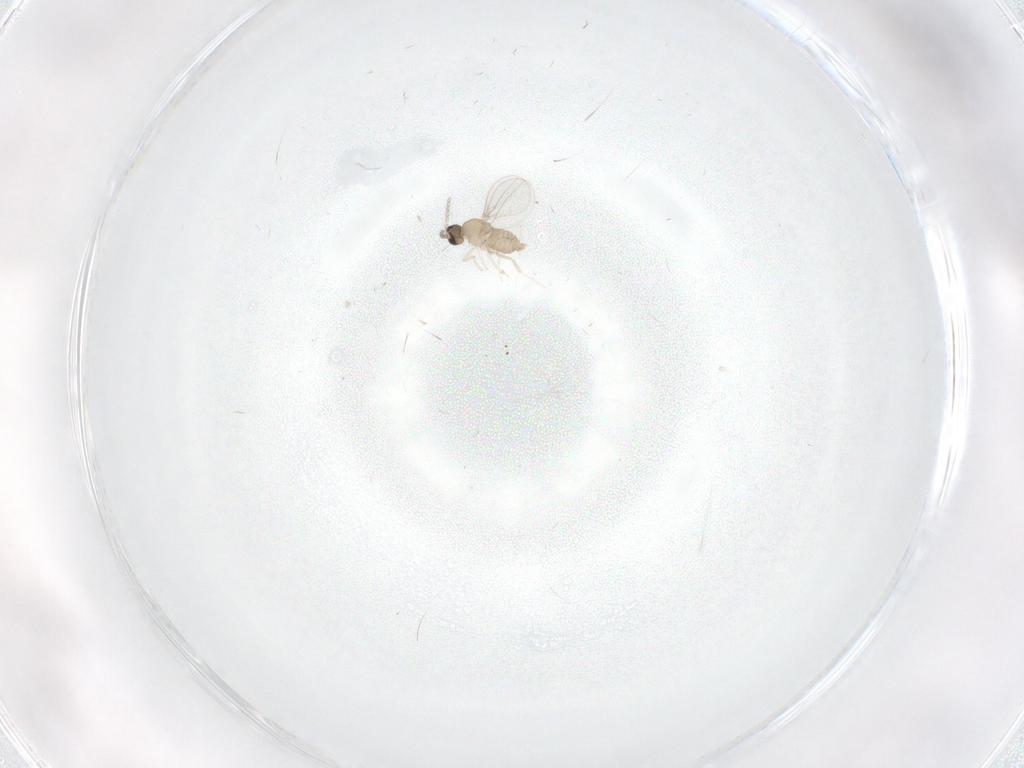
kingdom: Animalia
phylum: Arthropoda
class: Insecta
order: Diptera
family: Cecidomyiidae
